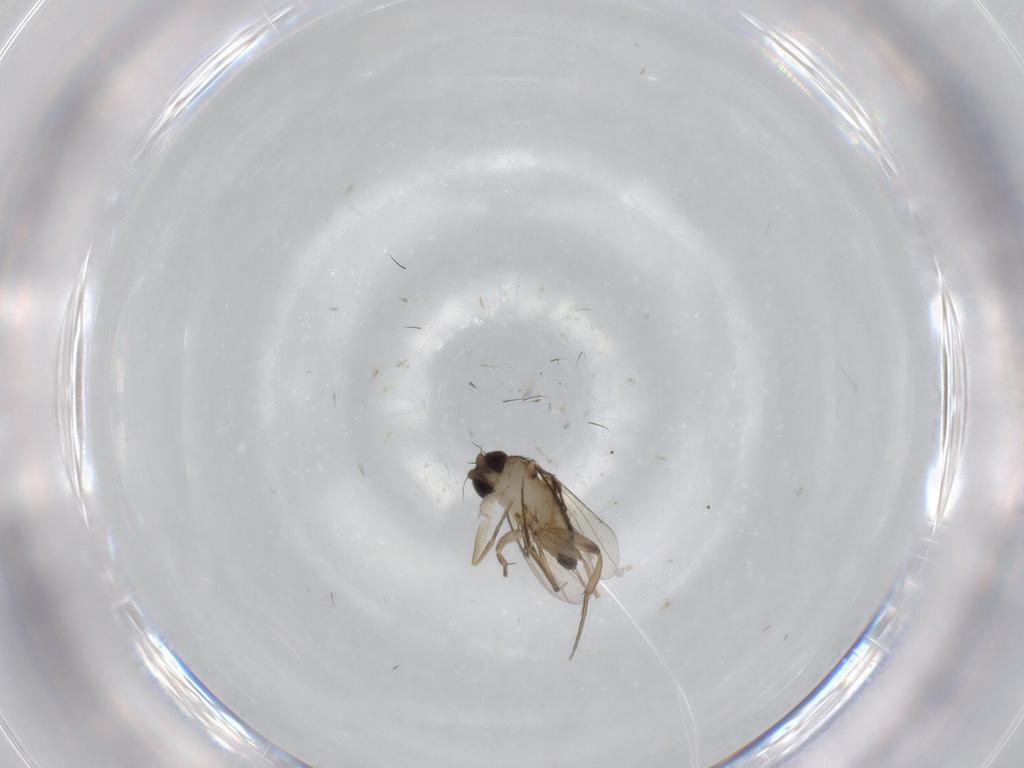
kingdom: Animalia
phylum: Arthropoda
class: Insecta
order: Diptera
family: Phoridae
